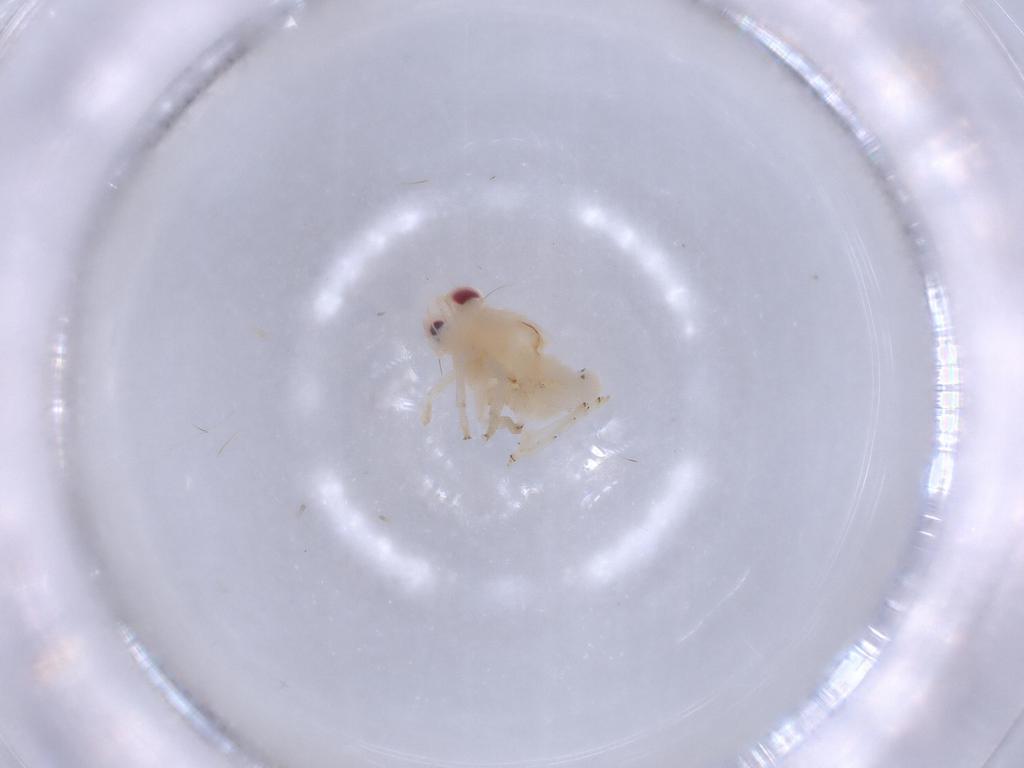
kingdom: Animalia
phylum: Arthropoda
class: Insecta
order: Hemiptera
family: Nogodinidae
